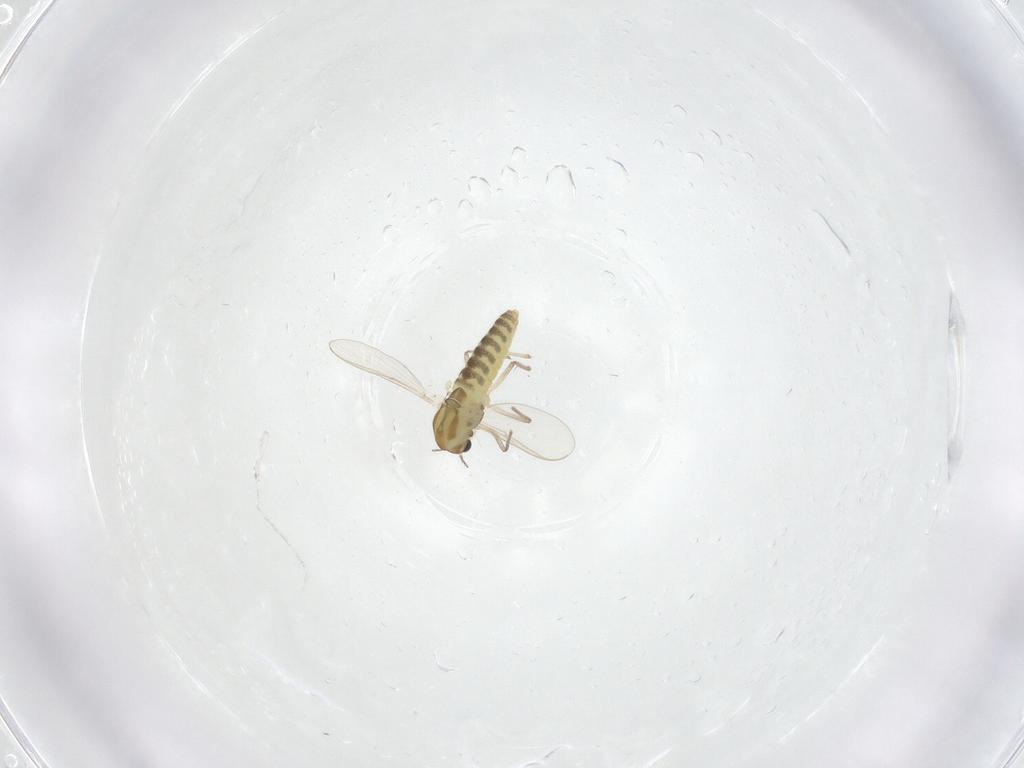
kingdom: Animalia
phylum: Arthropoda
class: Insecta
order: Diptera
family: Chironomidae
